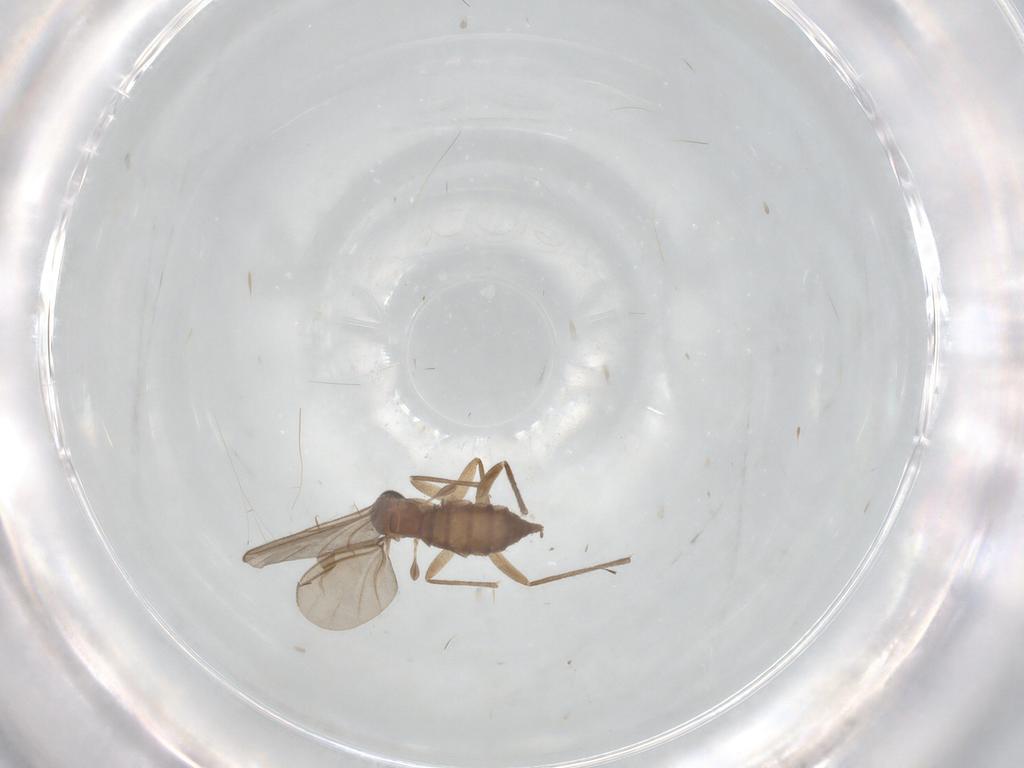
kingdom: Animalia
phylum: Arthropoda
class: Insecta
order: Diptera
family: Sciaridae
